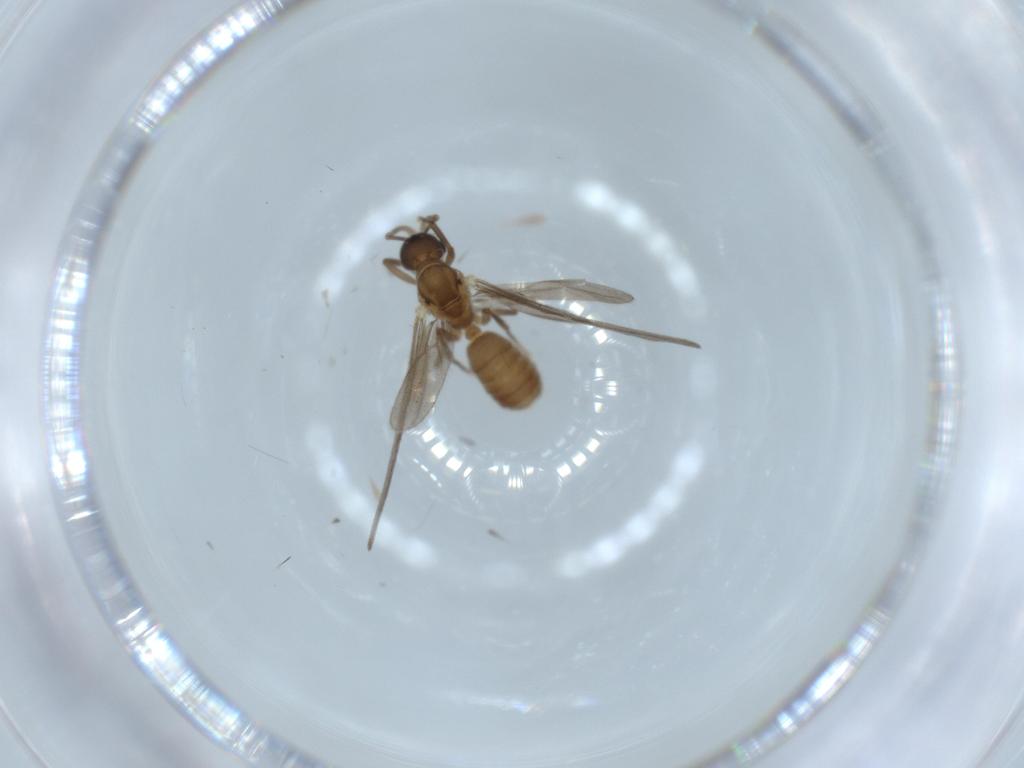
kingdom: Animalia
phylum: Arthropoda
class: Insecta
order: Hymenoptera
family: Formicidae
